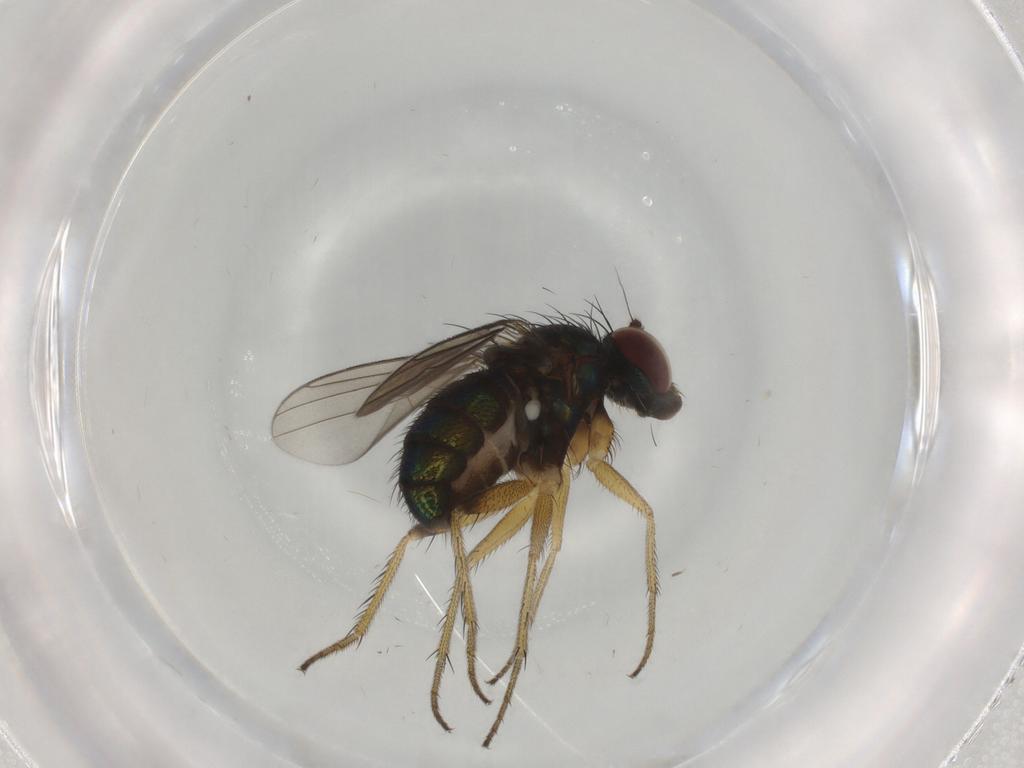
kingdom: Animalia
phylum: Arthropoda
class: Insecta
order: Diptera
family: Dolichopodidae
